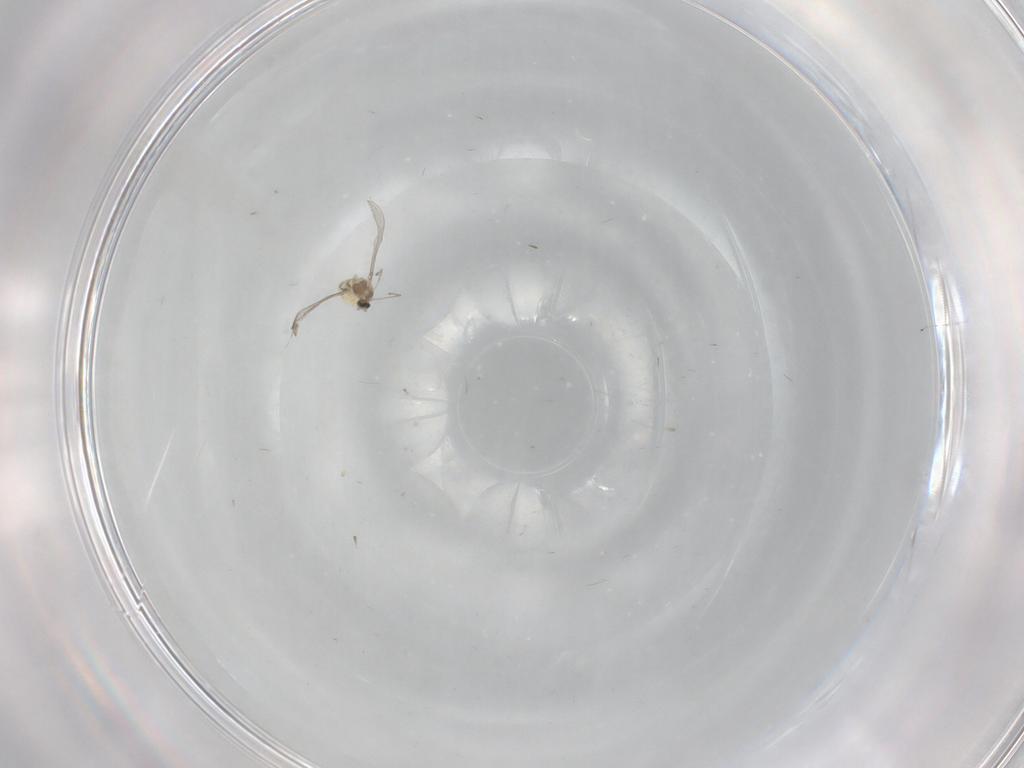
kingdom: Animalia
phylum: Arthropoda
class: Insecta
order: Diptera
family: Cecidomyiidae
